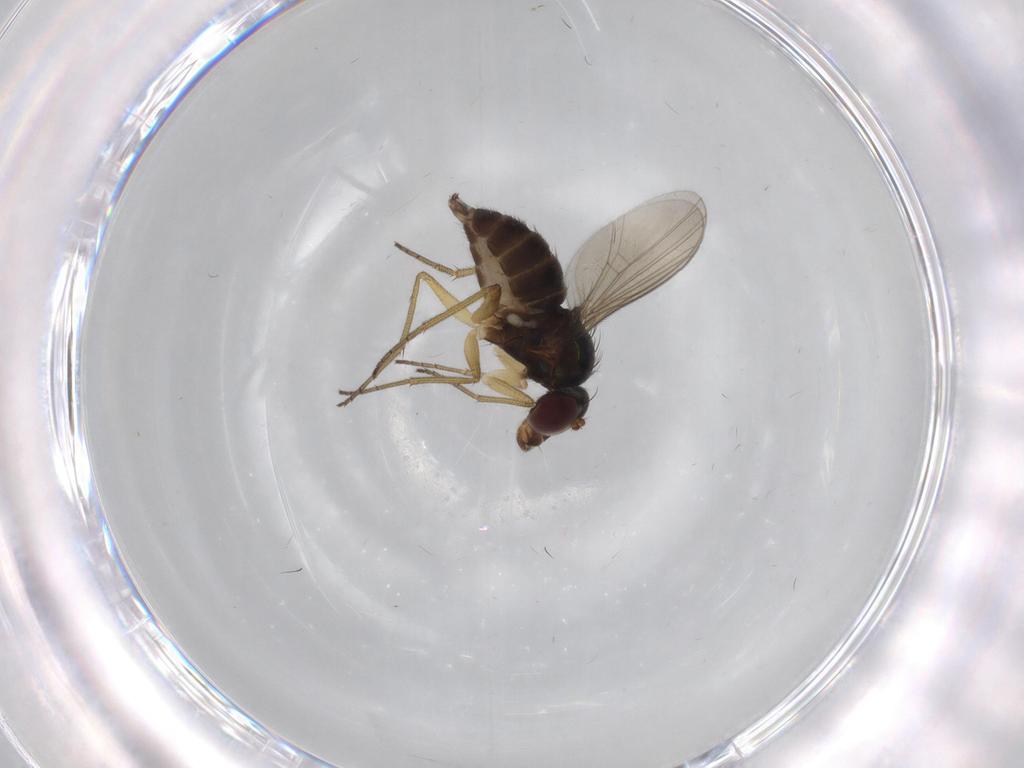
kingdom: Animalia
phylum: Arthropoda
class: Insecta
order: Diptera
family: Dolichopodidae
